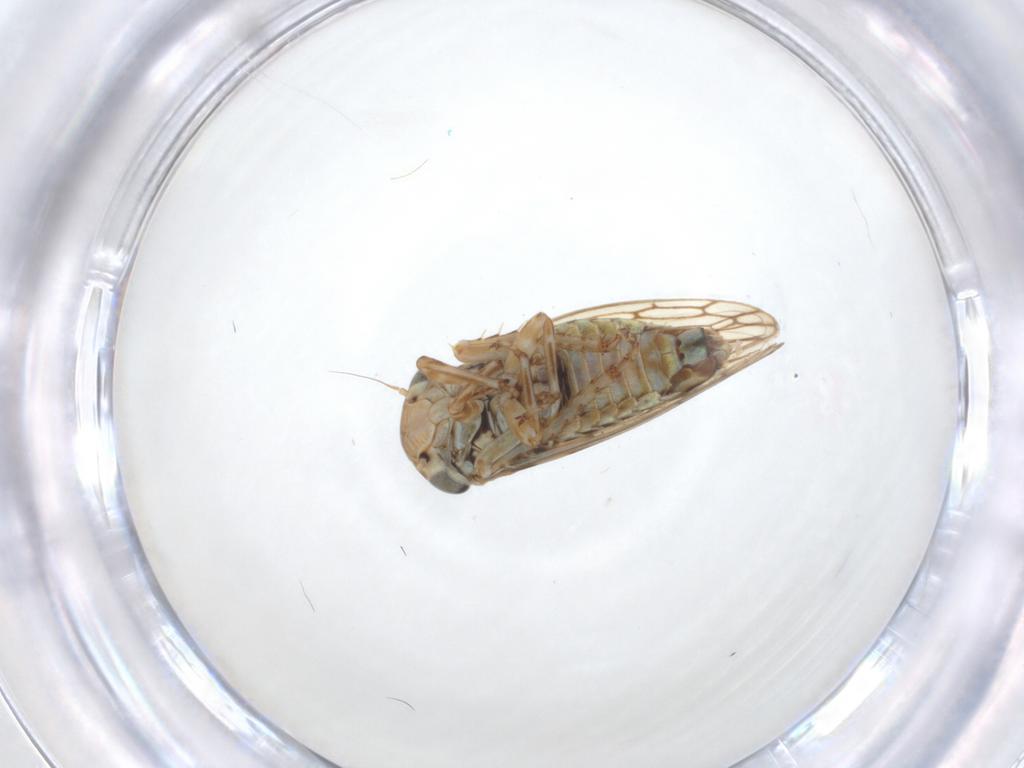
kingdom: Animalia
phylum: Arthropoda
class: Insecta
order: Hemiptera
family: Cicadellidae
